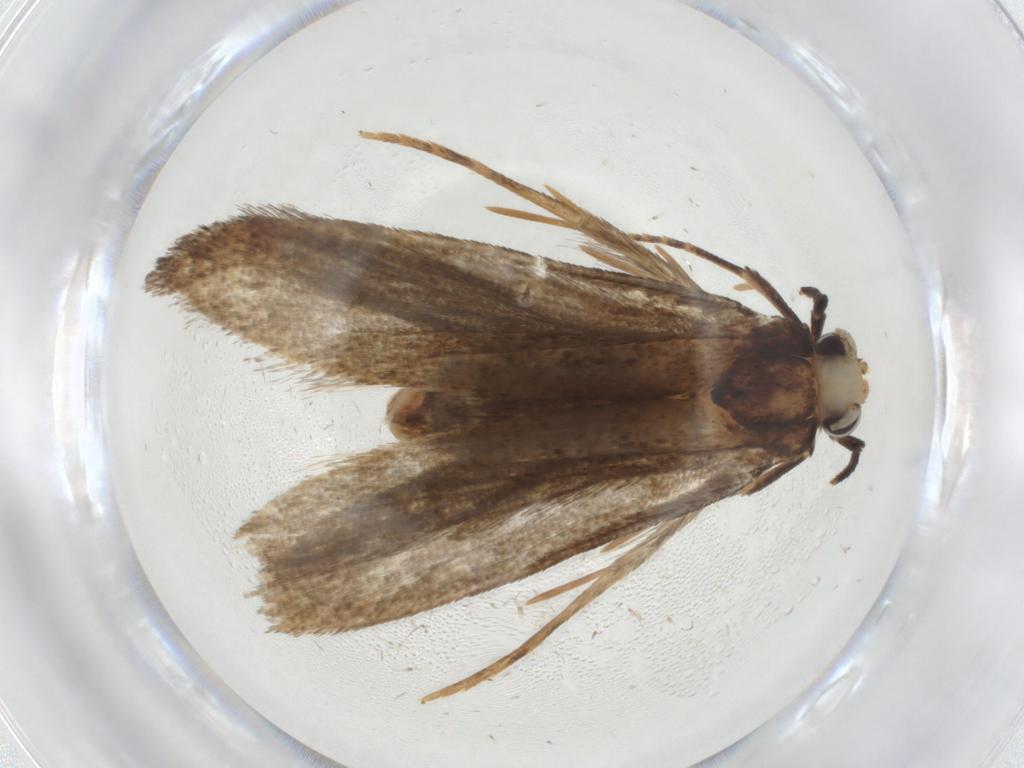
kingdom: Animalia
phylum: Arthropoda
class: Insecta
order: Lepidoptera
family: Tineidae
